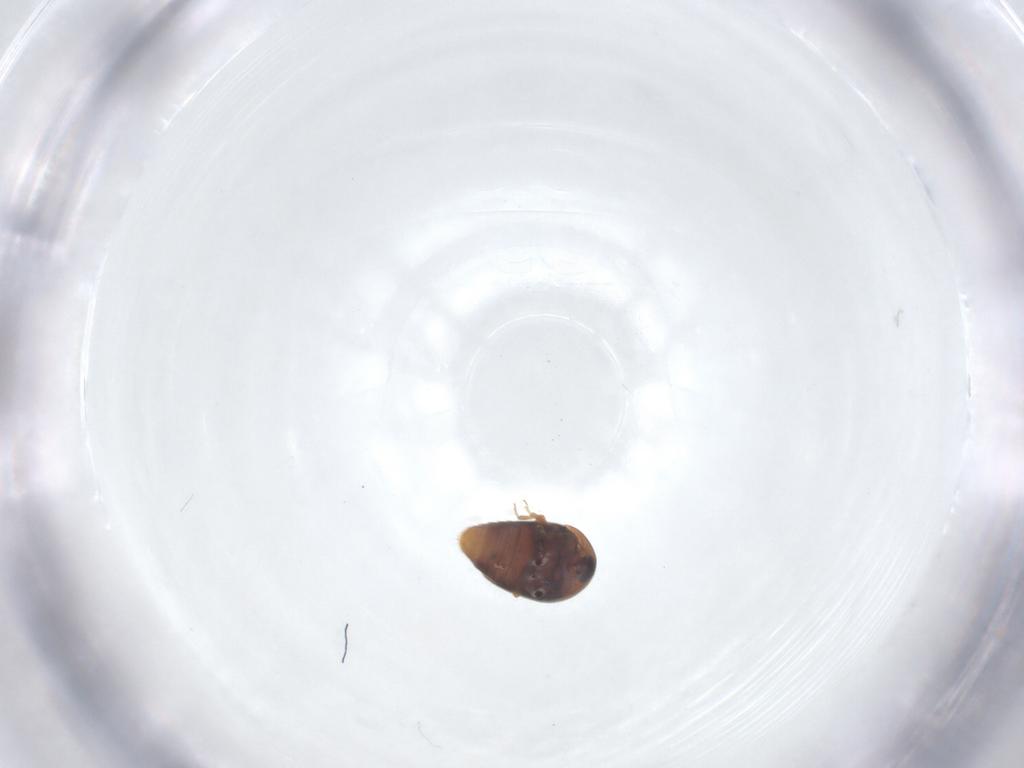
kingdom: Animalia
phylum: Arthropoda
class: Insecta
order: Coleoptera
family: Corylophidae
